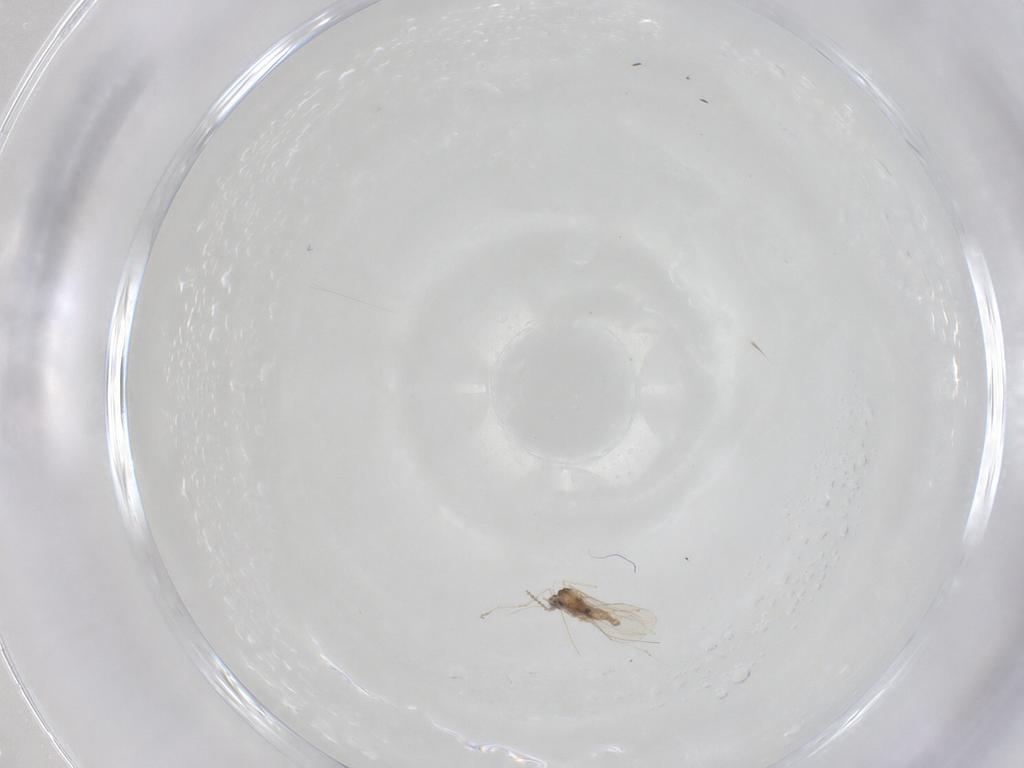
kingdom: Animalia
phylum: Arthropoda
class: Insecta
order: Diptera
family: Cecidomyiidae
